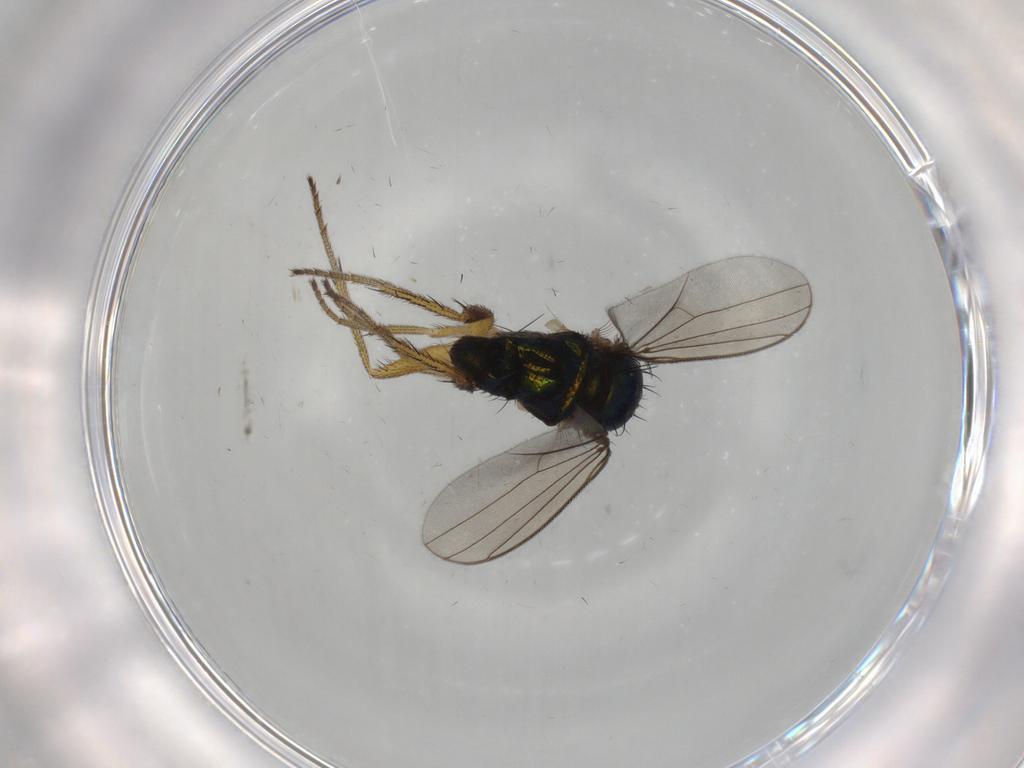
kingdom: Animalia
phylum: Arthropoda
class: Insecta
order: Diptera
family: Dolichopodidae
